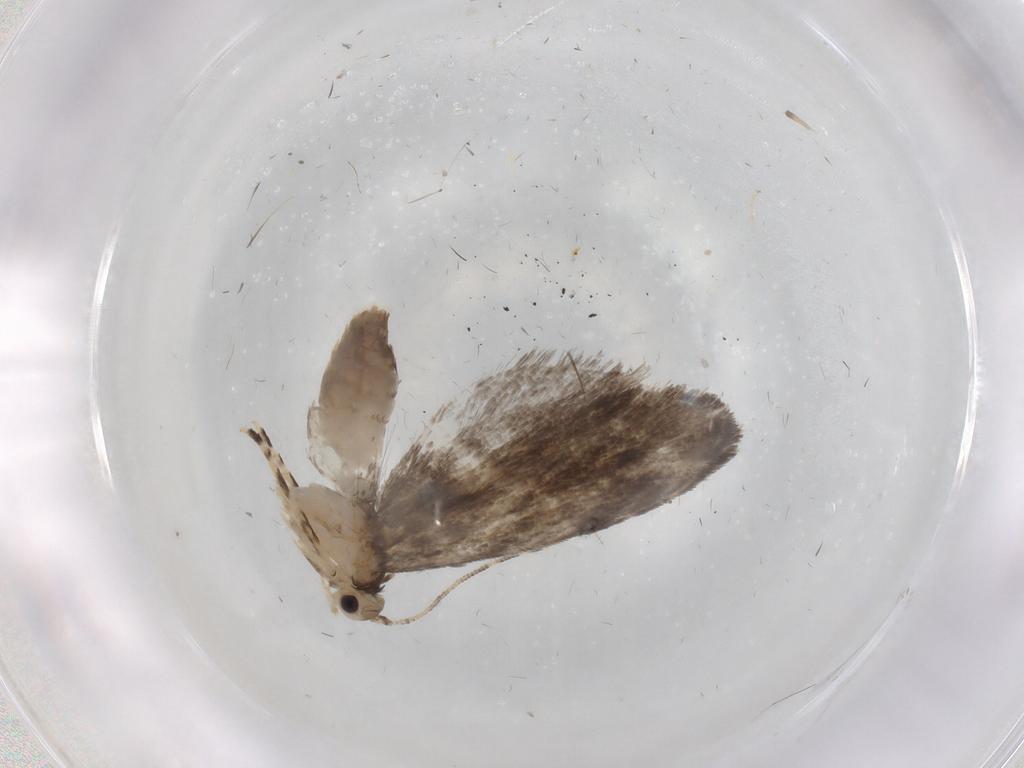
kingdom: Animalia
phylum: Arthropoda
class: Insecta
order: Lepidoptera
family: Tineidae
